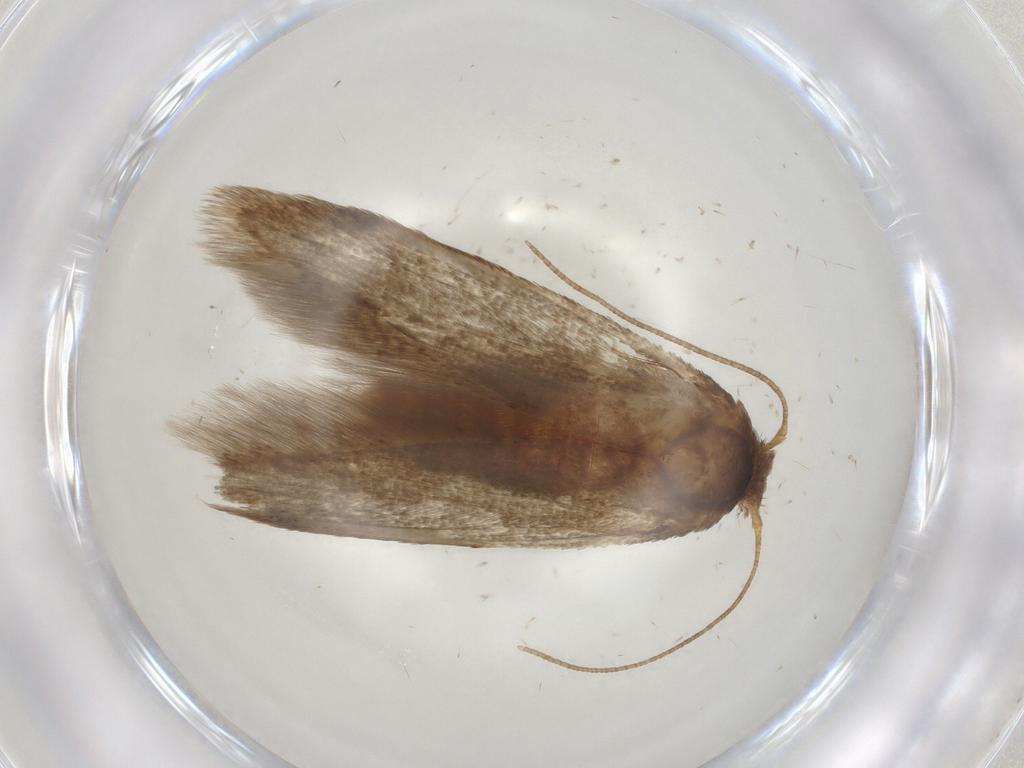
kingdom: Animalia
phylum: Arthropoda
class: Insecta
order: Lepidoptera
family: Blastobasidae
